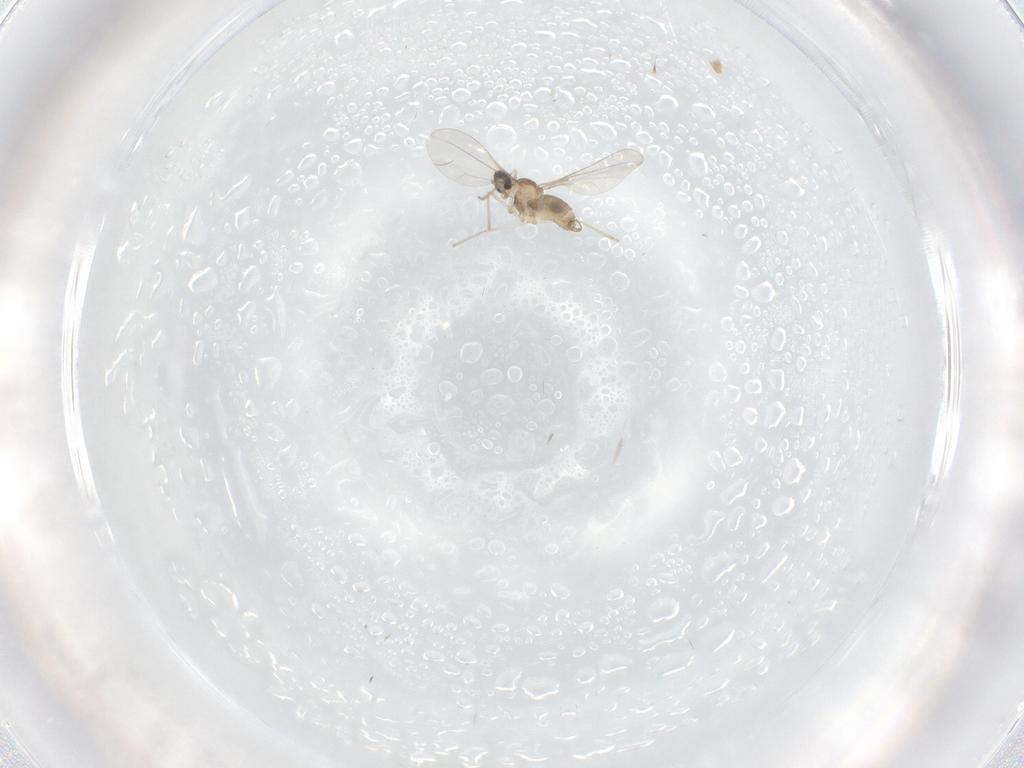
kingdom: Animalia
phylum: Arthropoda
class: Insecta
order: Diptera
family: Cecidomyiidae
